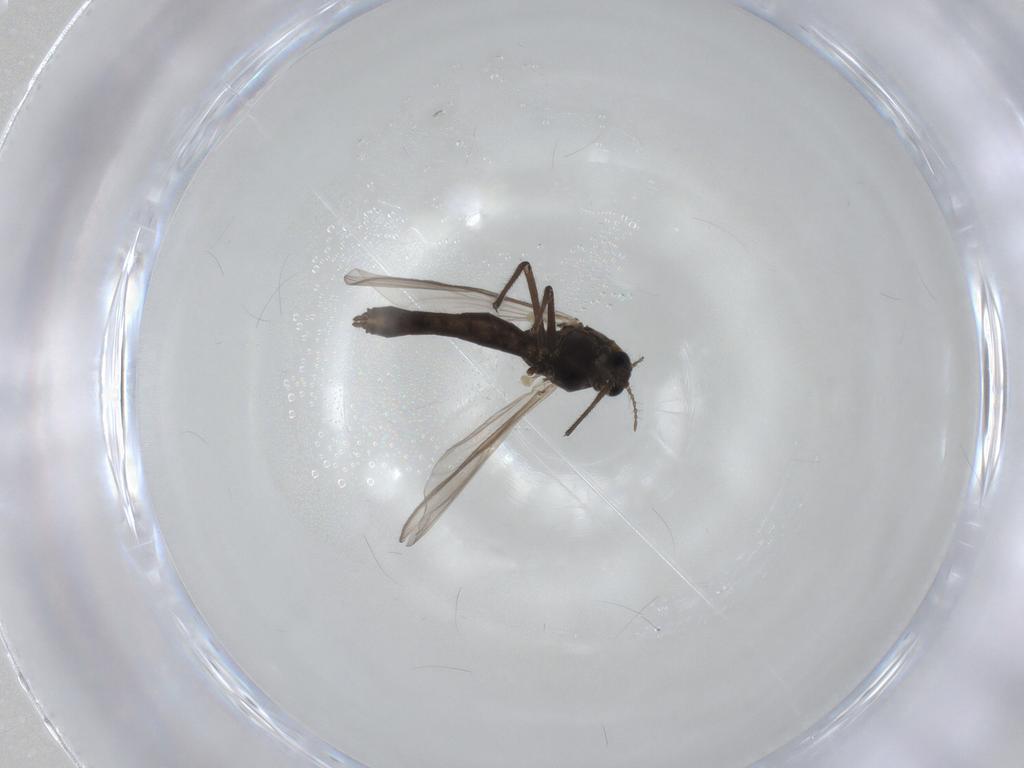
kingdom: Animalia
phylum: Arthropoda
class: Insecta
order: Diptera
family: Chironomidae
